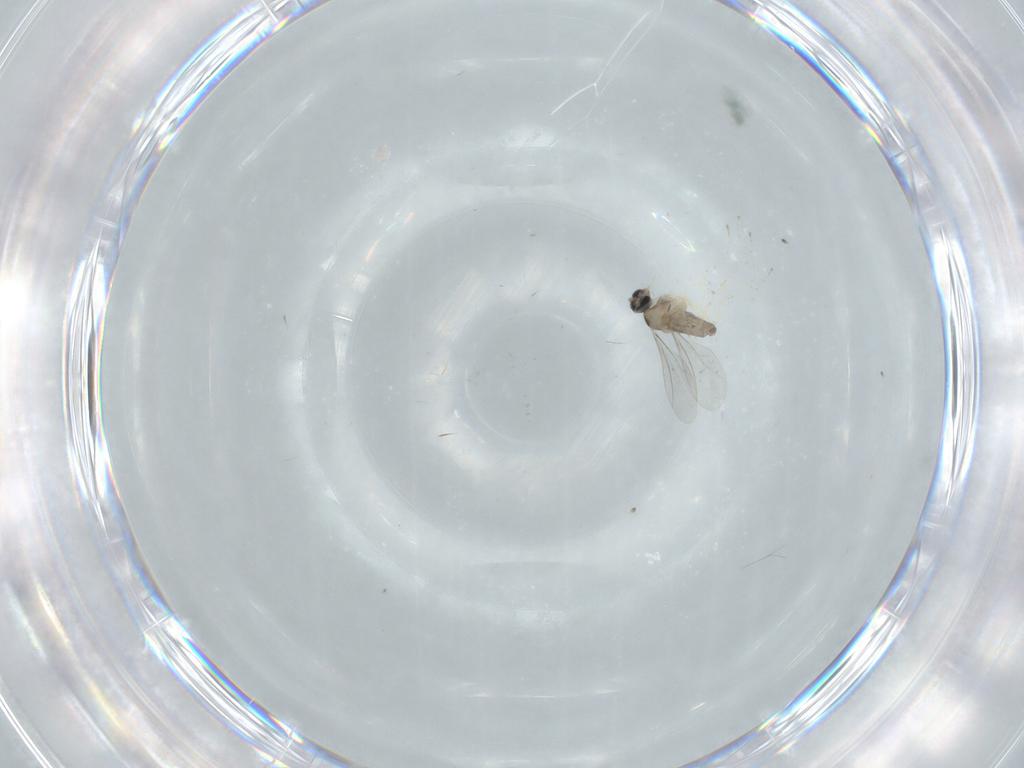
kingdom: Animalia
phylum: Arthropoda
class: Insecta
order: Diptera
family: Cecidomyiidae
